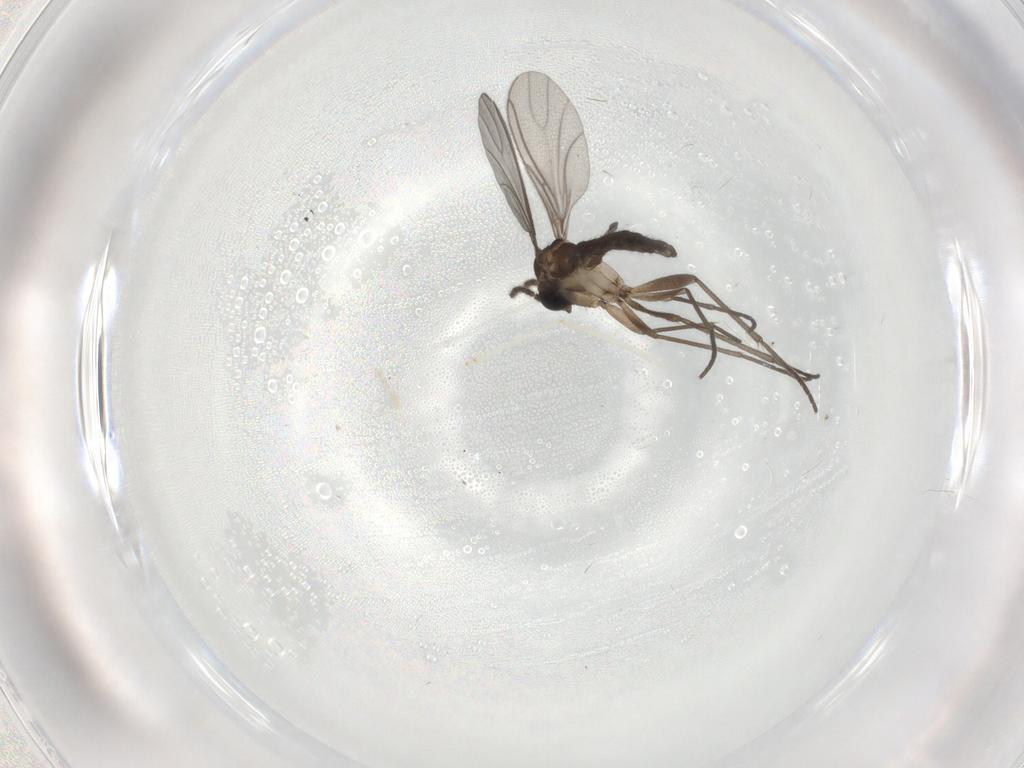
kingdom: Animalia
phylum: Arthropoda
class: Insecta
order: Diptera
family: Sciaridae
